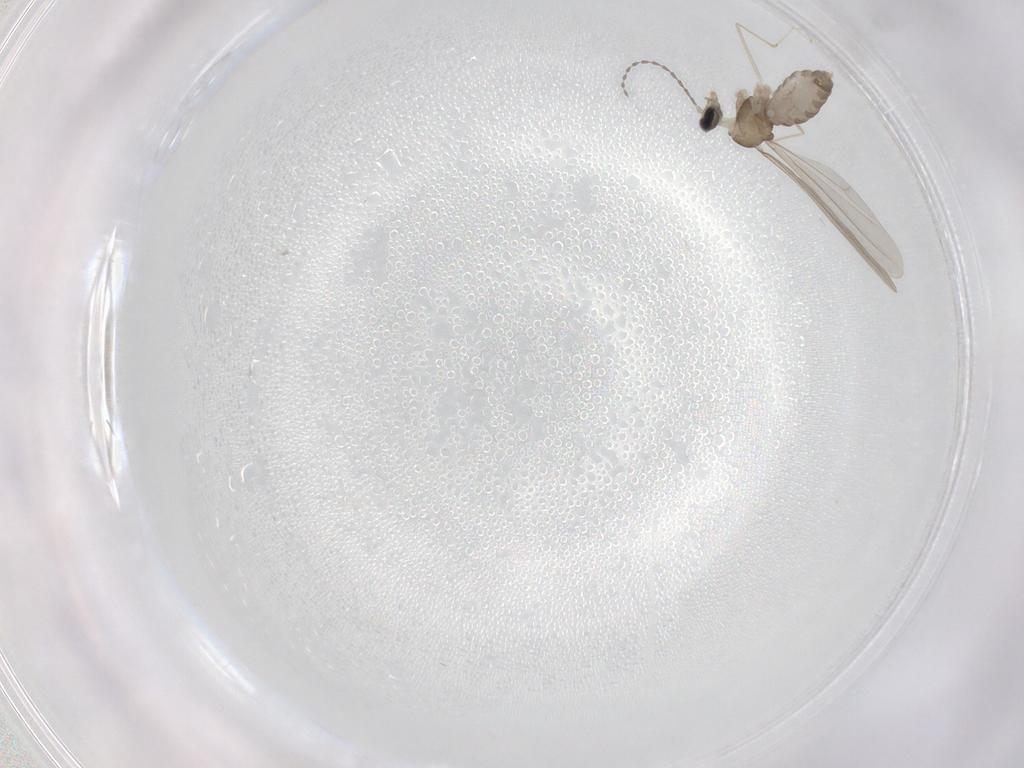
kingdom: Animalia
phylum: Arthropoda
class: Insecta
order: Diptera
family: Cecidomyiidae
